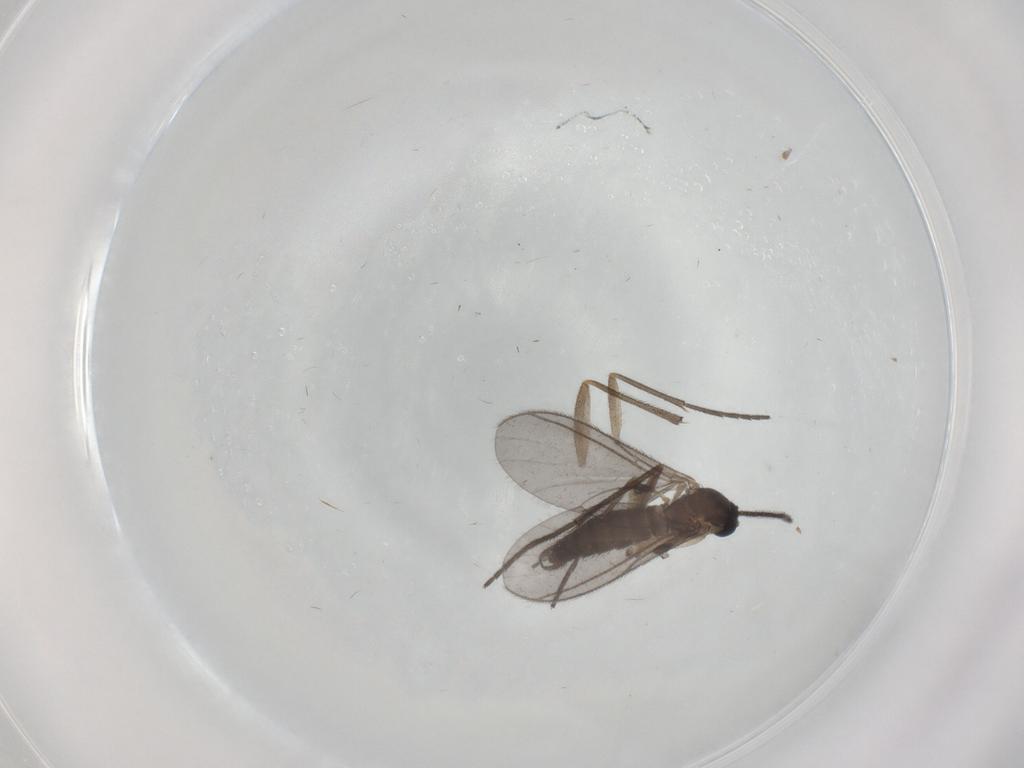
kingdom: Animalia
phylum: Arthropoda
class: Insecta
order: Diptera
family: Sciaridae
